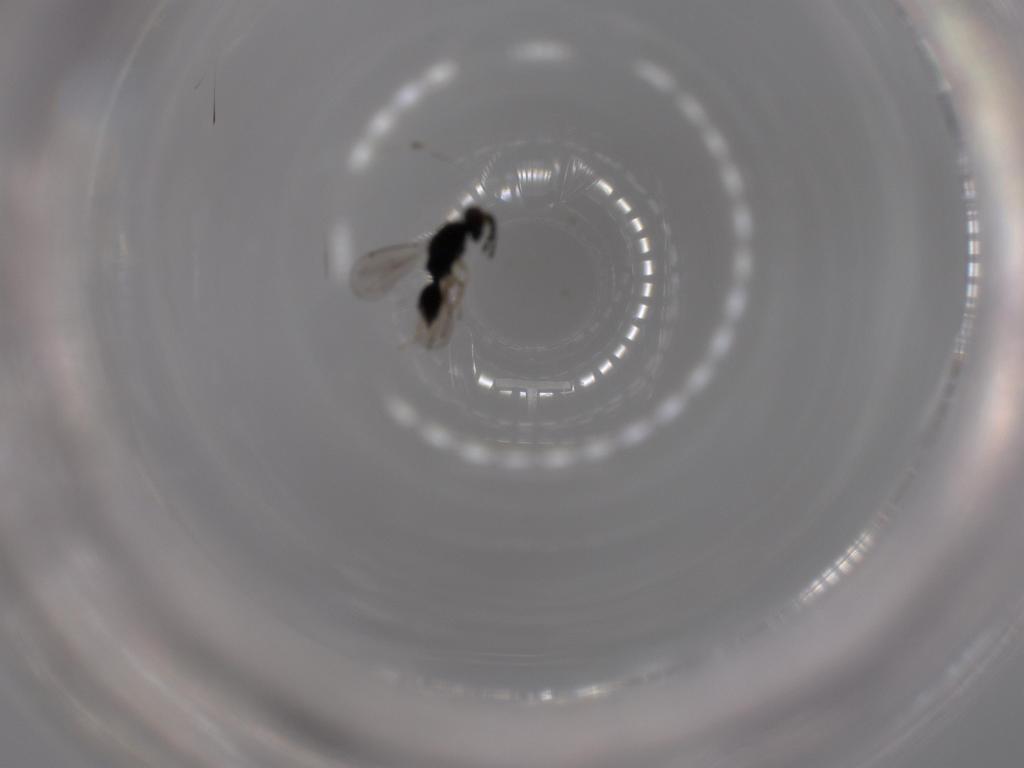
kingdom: Animalia
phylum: Arthropoda
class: Insecta
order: Hymenoptera
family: Eulophidae
